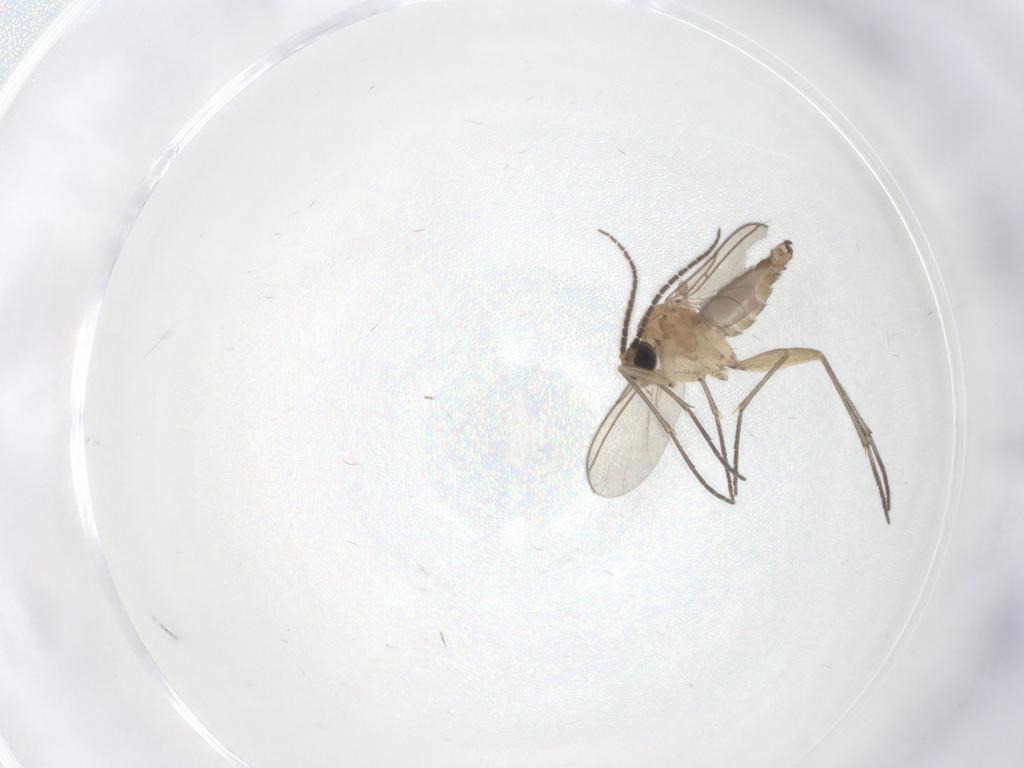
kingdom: Animalia
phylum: Arthropoda
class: Insecta
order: Diptera
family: Sciaridae
